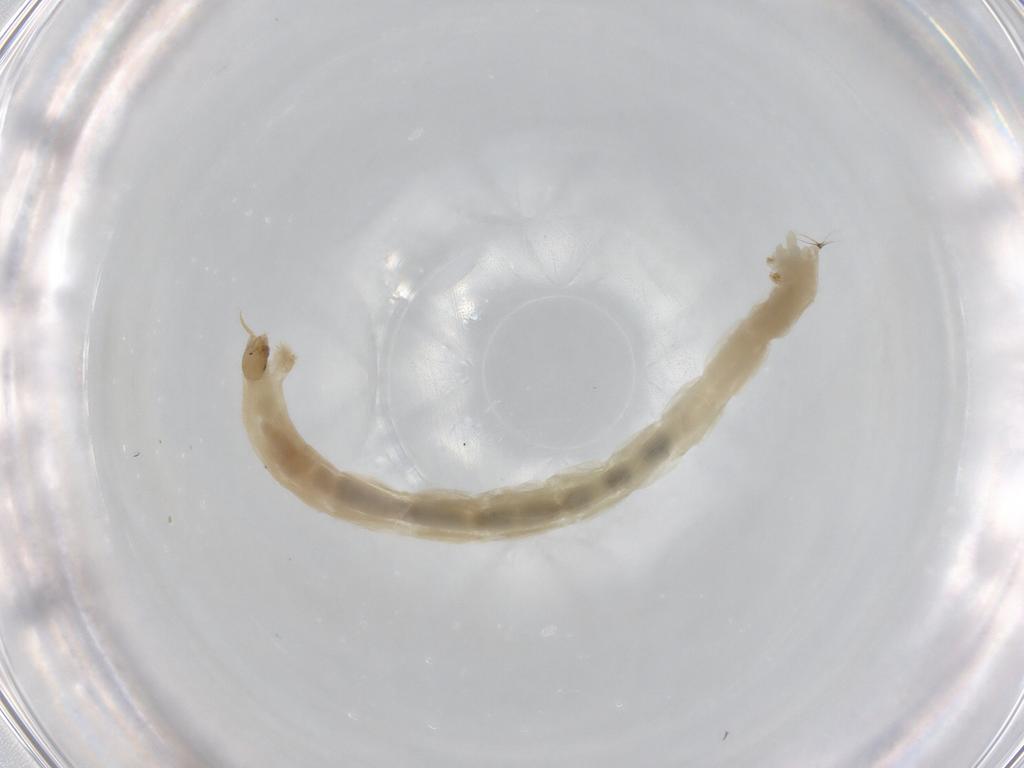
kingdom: Animalia
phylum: Arthropoda
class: Insecta
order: Diptera
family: Chironomidae
